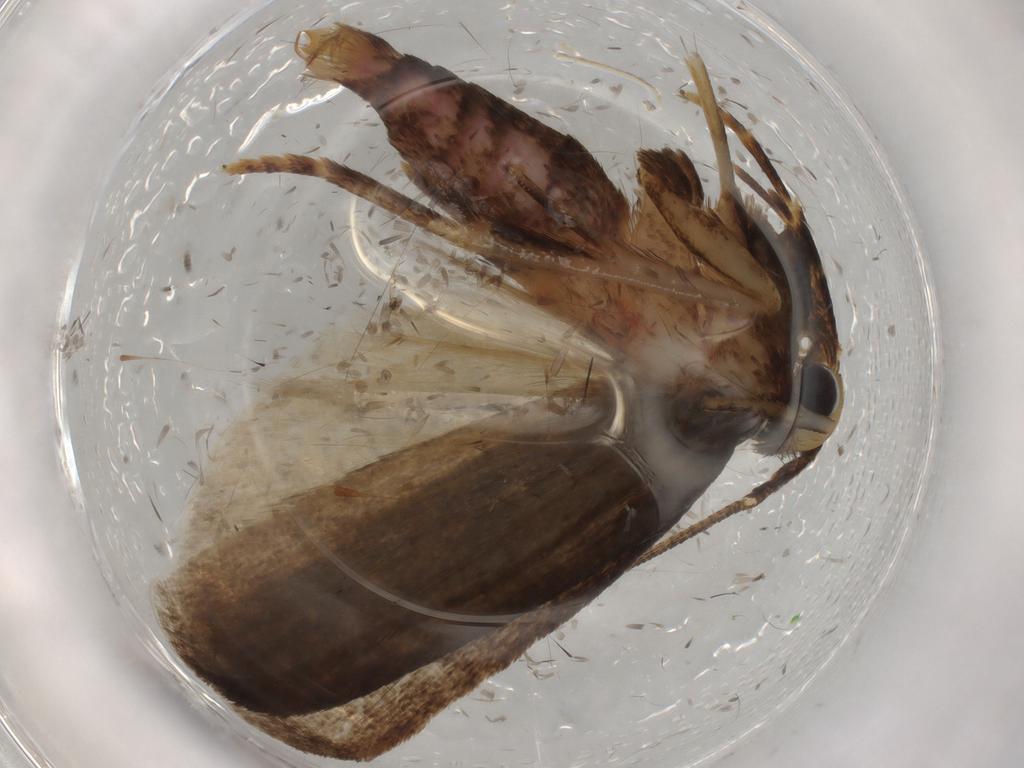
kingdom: Animalia
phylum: Arthropoda
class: Insecta
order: Lepidoptera
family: Autostichidae
